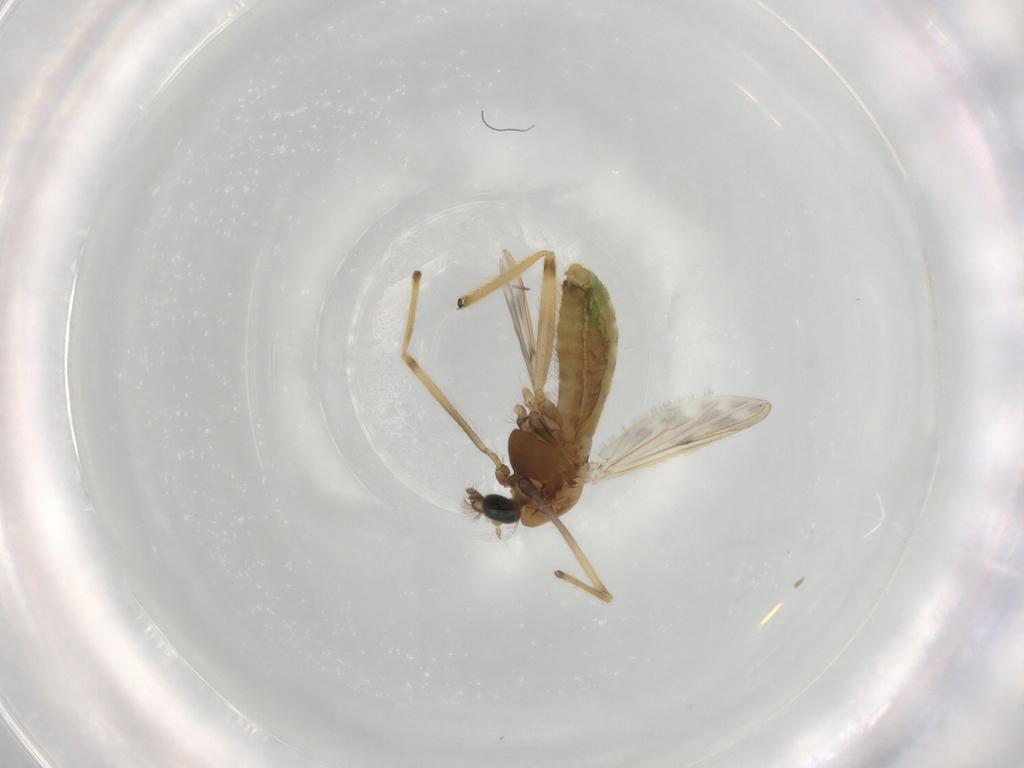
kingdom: Animalia
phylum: Arthropoda
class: Insecta
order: Diptera
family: Chironomidae
